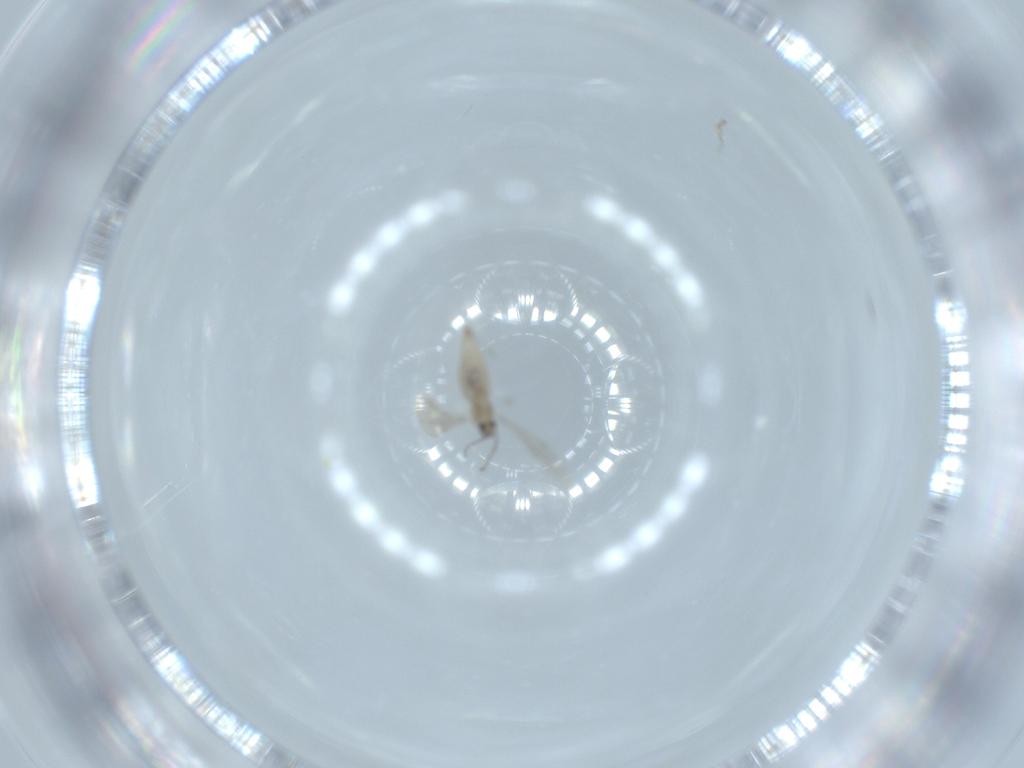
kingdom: Animalia
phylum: Arthropoda
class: Insecta
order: Diptera
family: Cecidomyiidae
